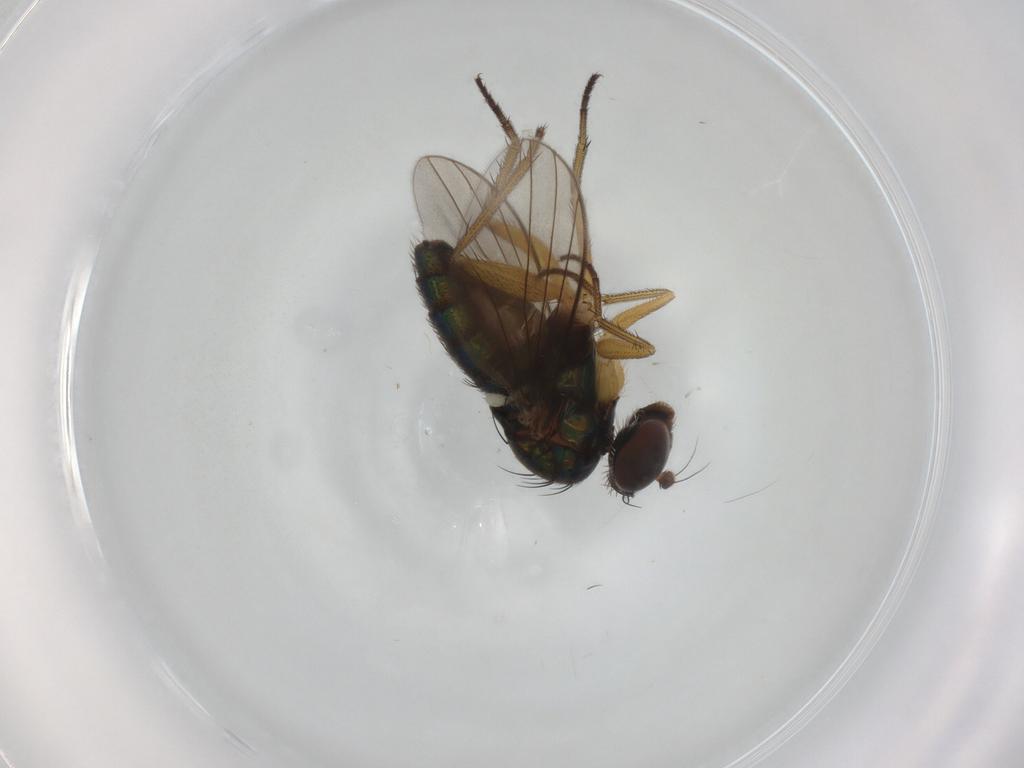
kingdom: Animalia
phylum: Arthropoda
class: Insecta
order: Diptera
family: Dolichopodidae
